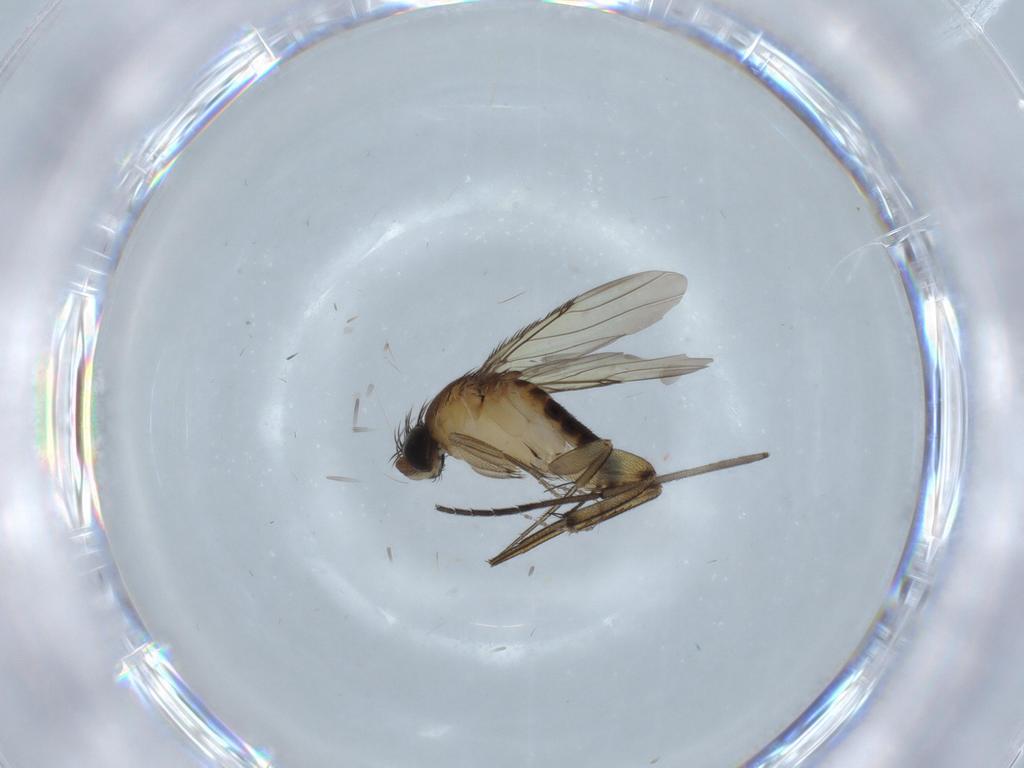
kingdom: Animalia
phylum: Arthropoda
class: Insecta
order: Diptera
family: Phoridae
